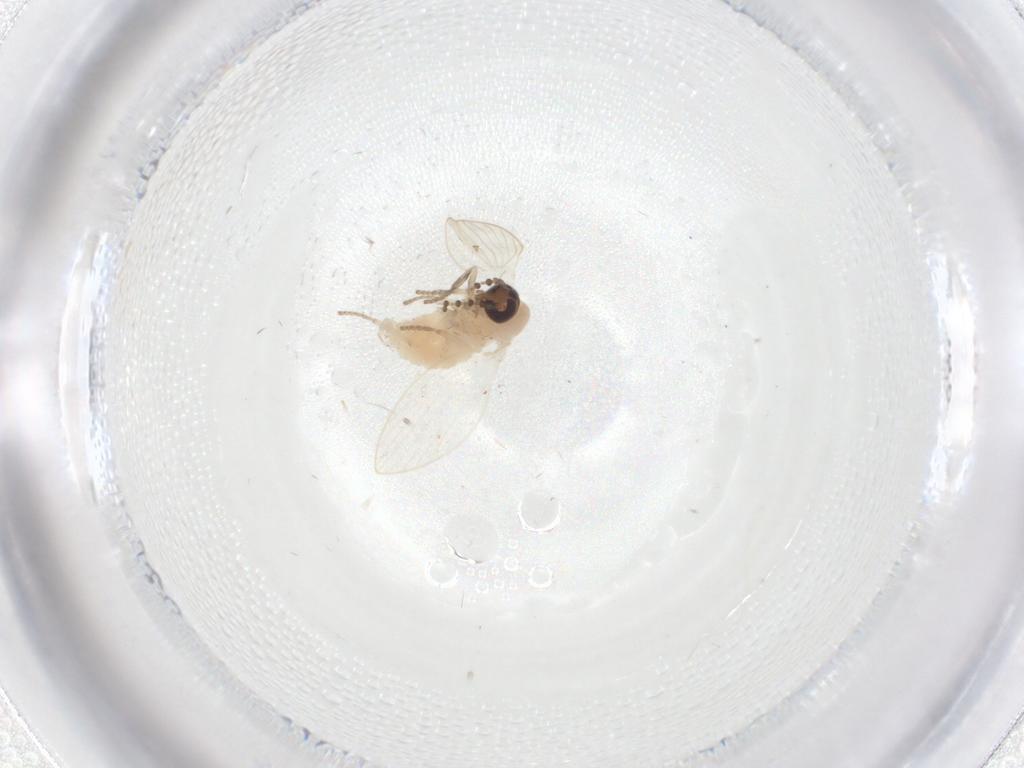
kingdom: Animalia
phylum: Arthropoda
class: Insecta
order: Diptera
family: Psychodidae
